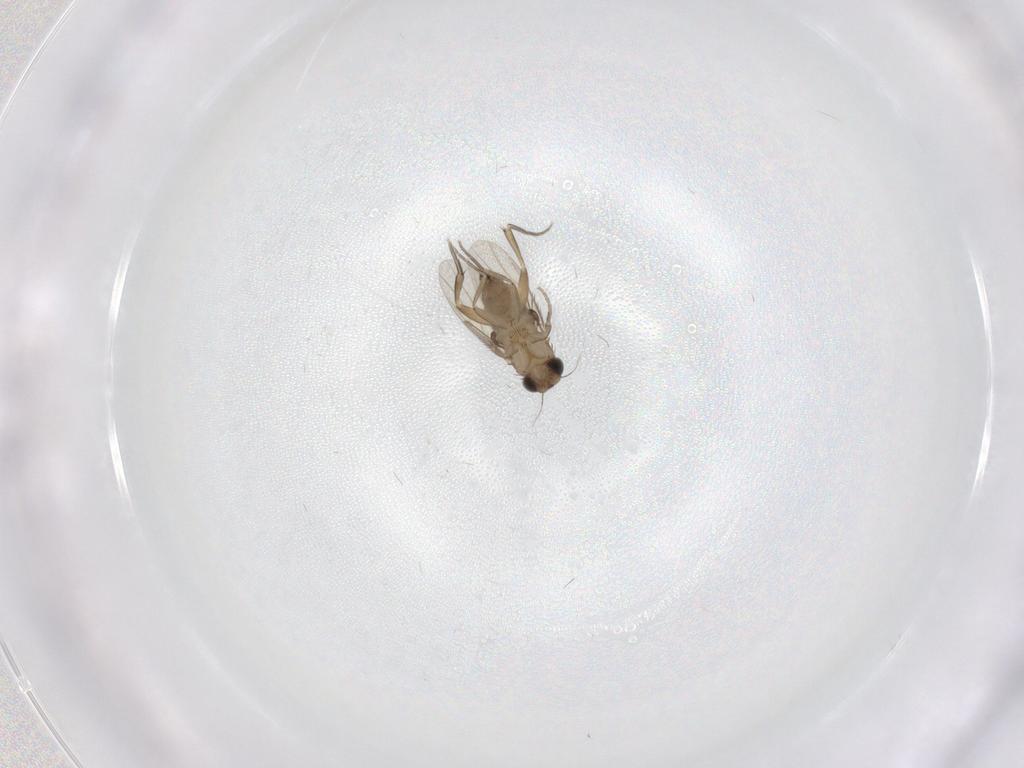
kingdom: Animalia
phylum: Arthropoda
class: Insecta
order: Diptera
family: Phoridae
